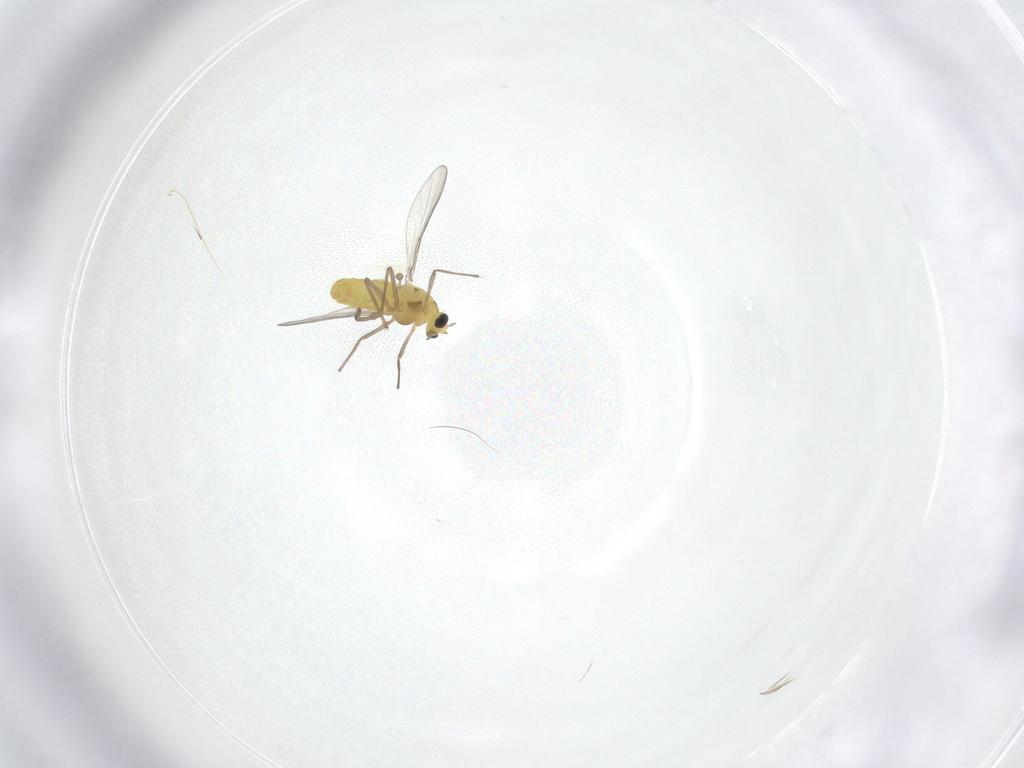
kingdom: Animalia
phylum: Arthropoda
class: Insecta
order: Diptera
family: Chironomidae
